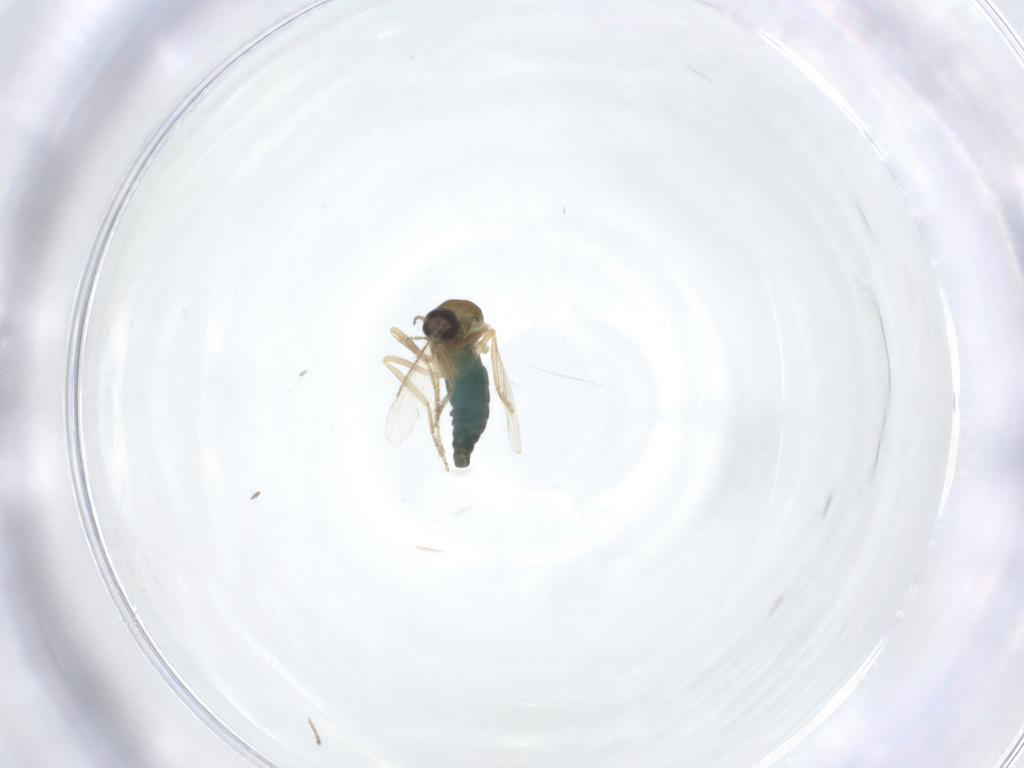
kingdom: Animalia
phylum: Arthropoda
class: Insecta
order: Diptera
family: Ceratopogonidae
